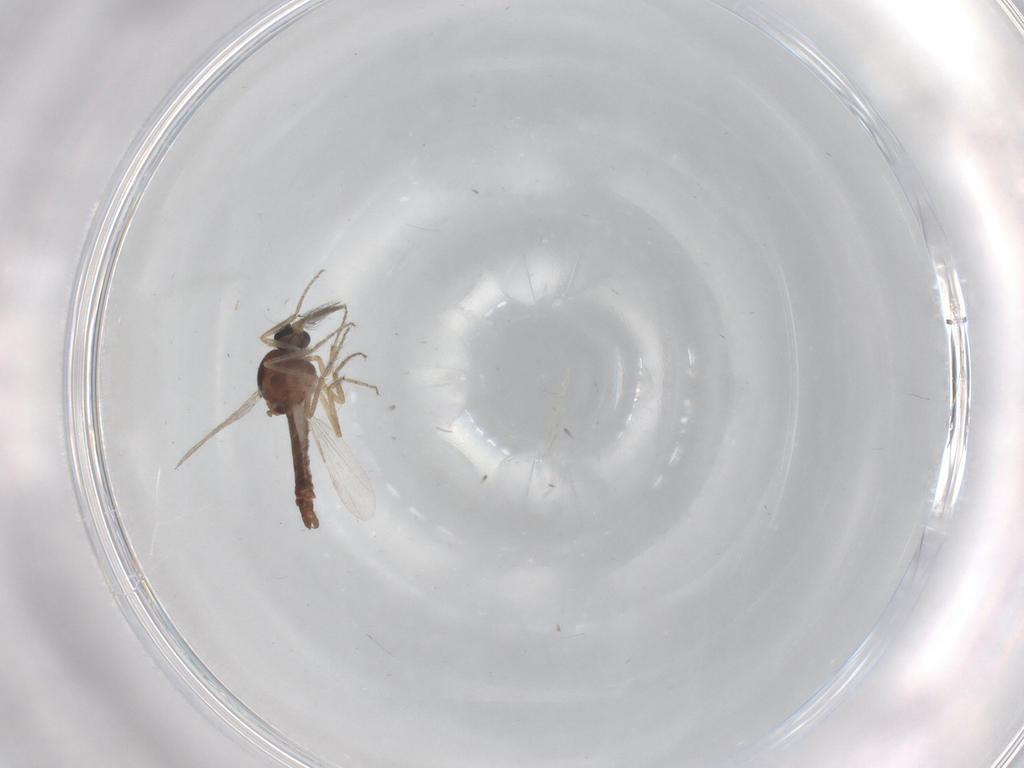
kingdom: Animalia
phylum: Arthropoda
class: Insecta
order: Diptera
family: Ceratopogonidae
